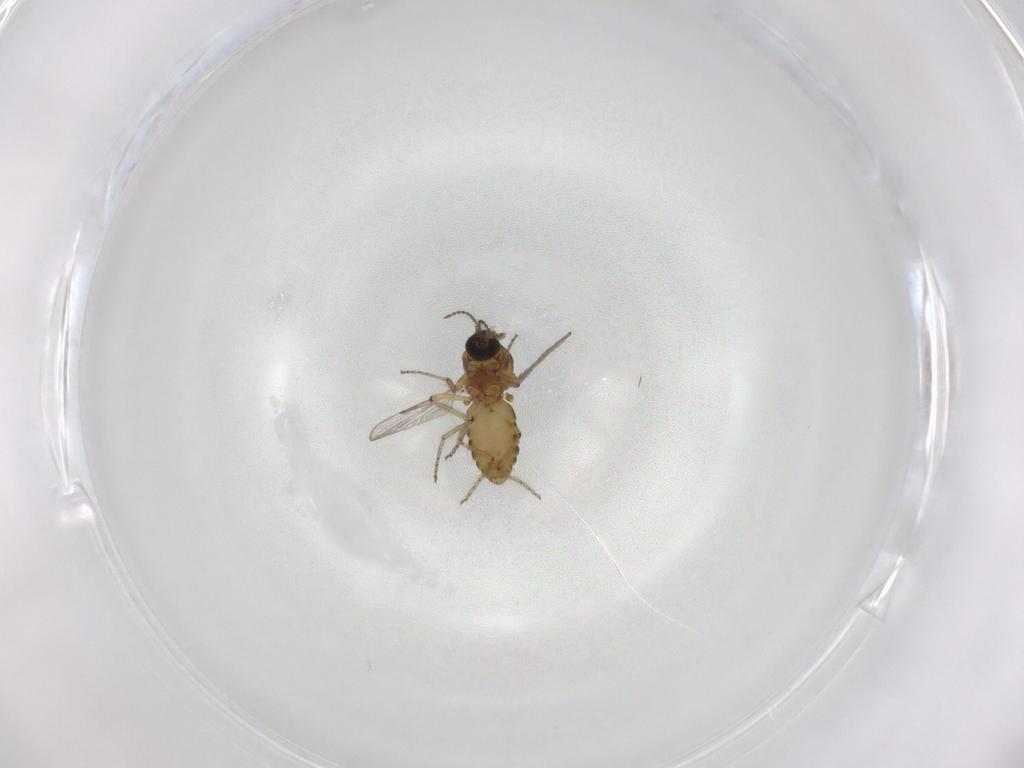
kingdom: Animalia
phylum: Arthropoda
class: Insecta
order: Diptera
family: Ceratopogonidae
